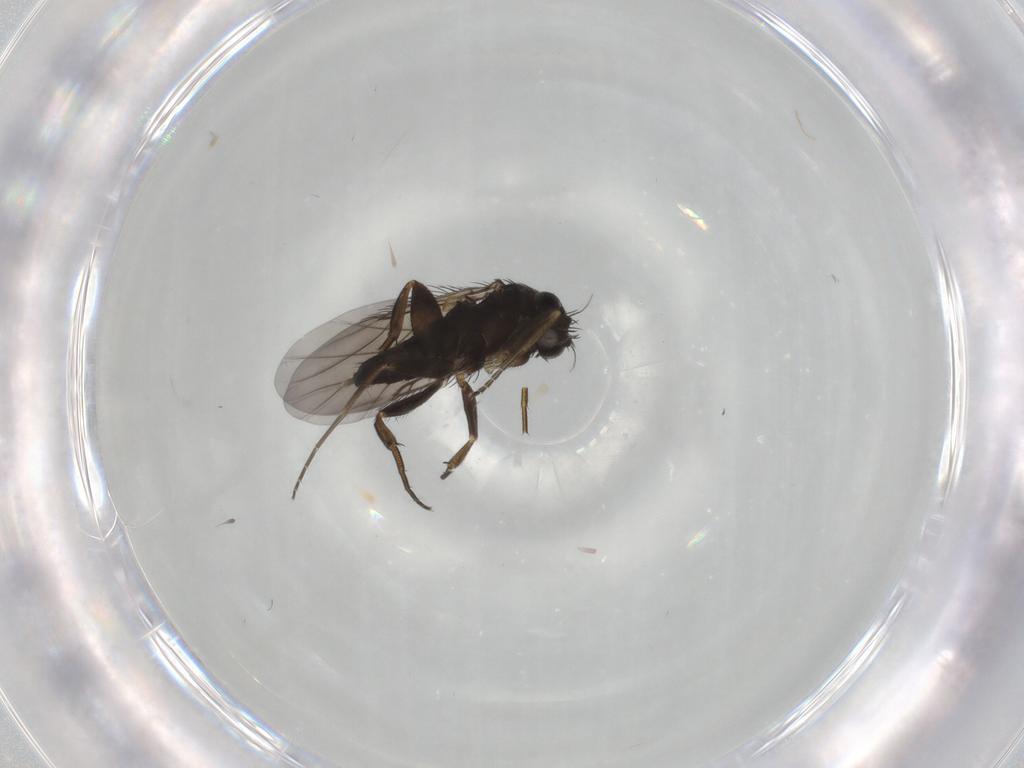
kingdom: Animalia
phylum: Arthropoda
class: Insecta
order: Diptera
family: Phoridae
